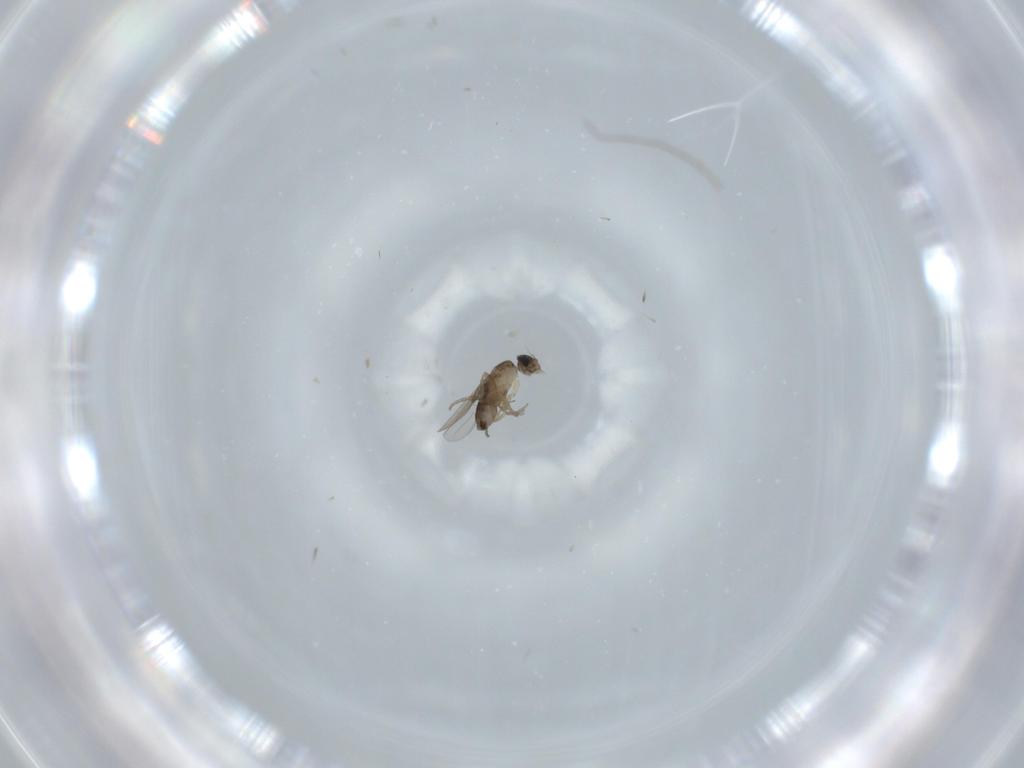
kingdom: Animalia
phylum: Arthropoda
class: Insecta
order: Diptera
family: Phoridae
